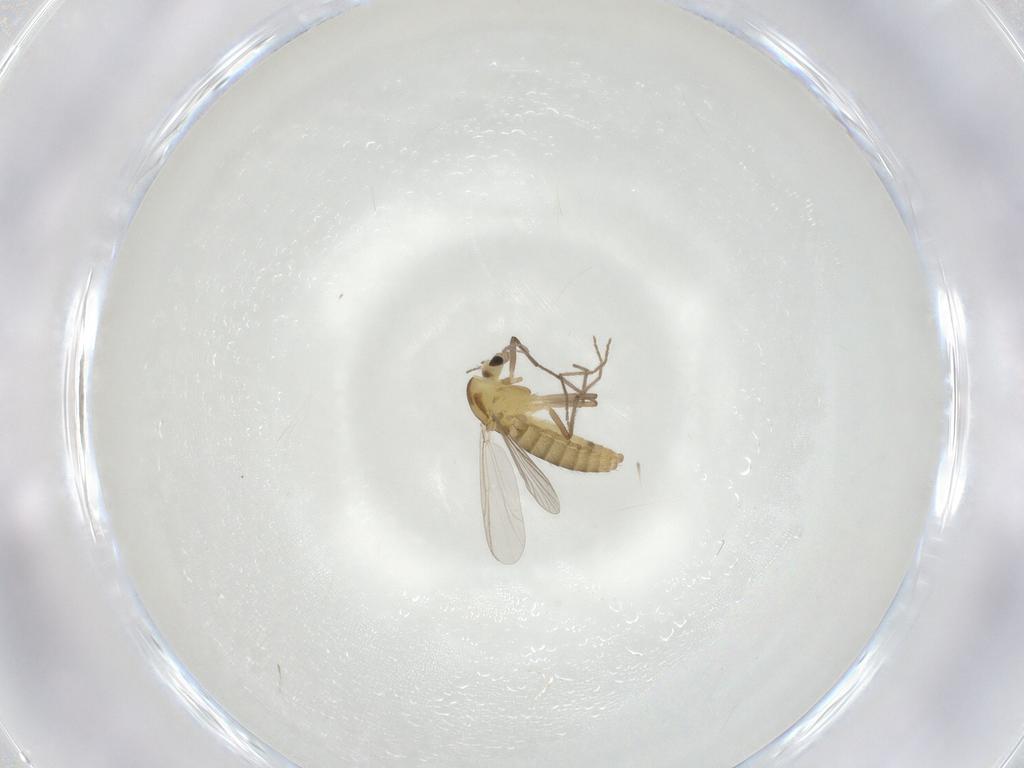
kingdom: Animalia
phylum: Arthropoda
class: Insecta
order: Diptera
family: Chironomidae
